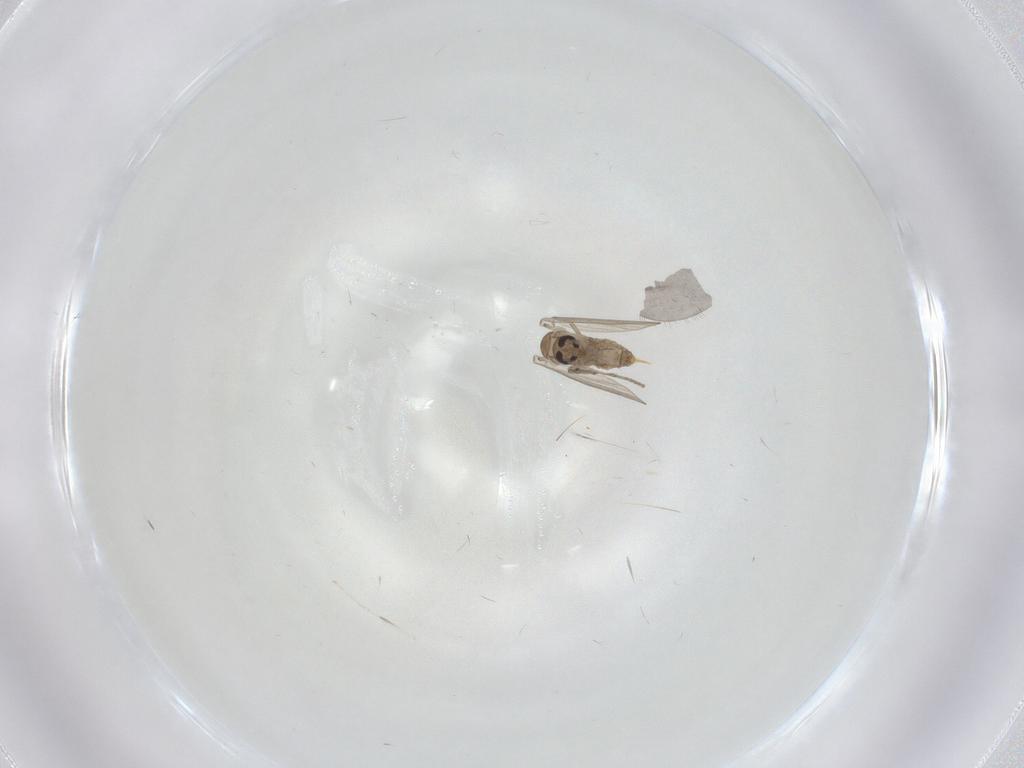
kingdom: Animalia
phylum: Arthropoda
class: Insecta
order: Diptera
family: Psychodidae
